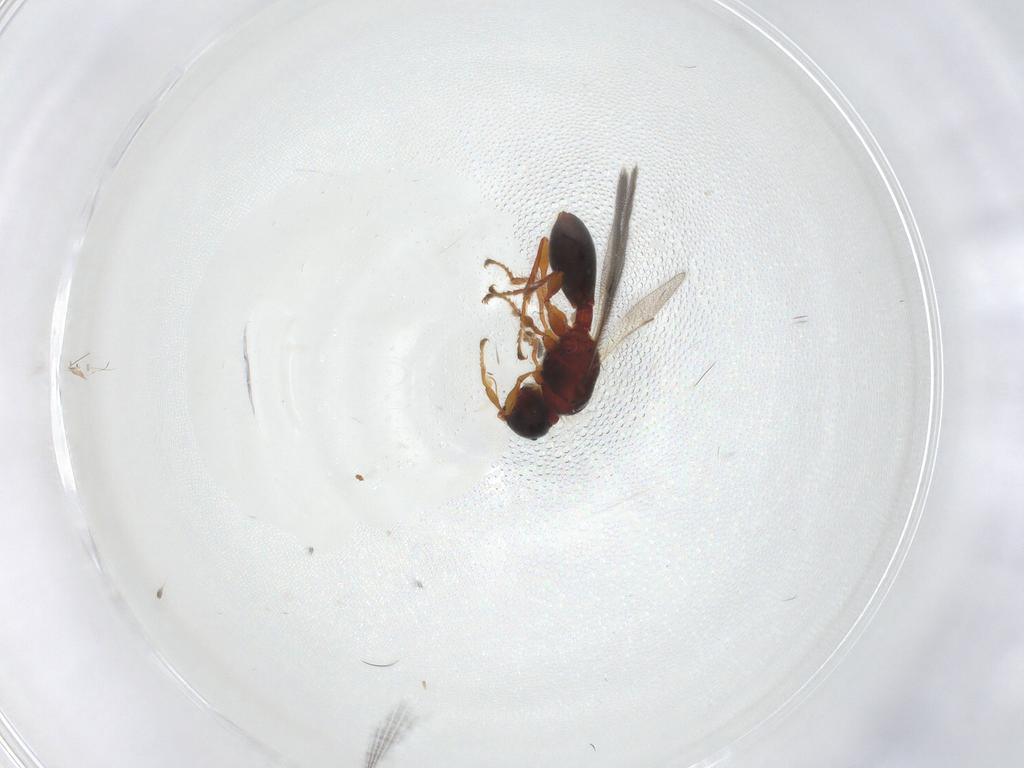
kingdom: Animalia
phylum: Arthropoda
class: Insecta
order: Hymenoptera
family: Diapriidae
